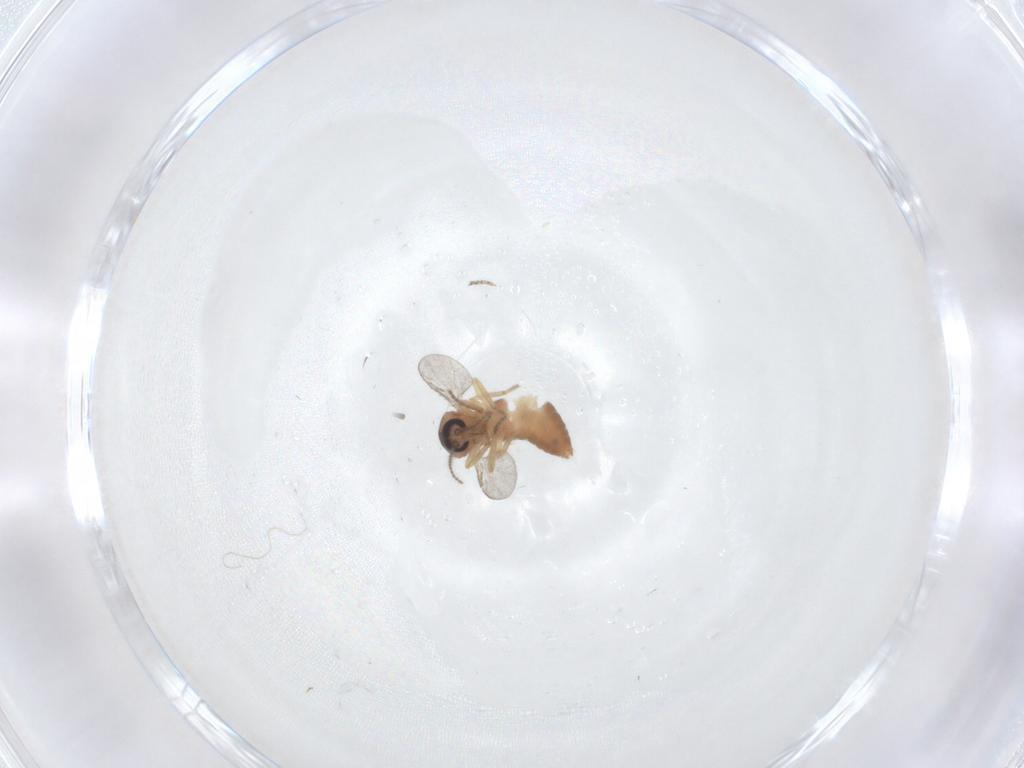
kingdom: Animalia
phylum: Arthropoda
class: Insecta
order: Diptera
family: Ceratopogonidae
